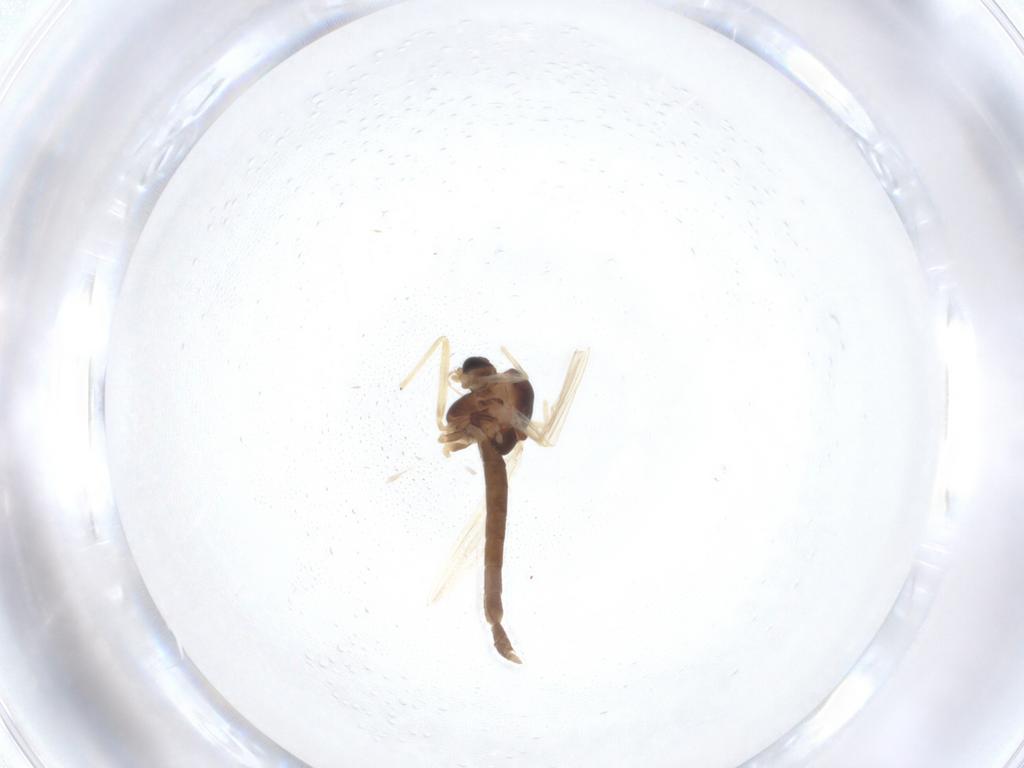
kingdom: Animalia
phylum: Arthropoda
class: Insecta
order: Diptera
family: Chironomidae
